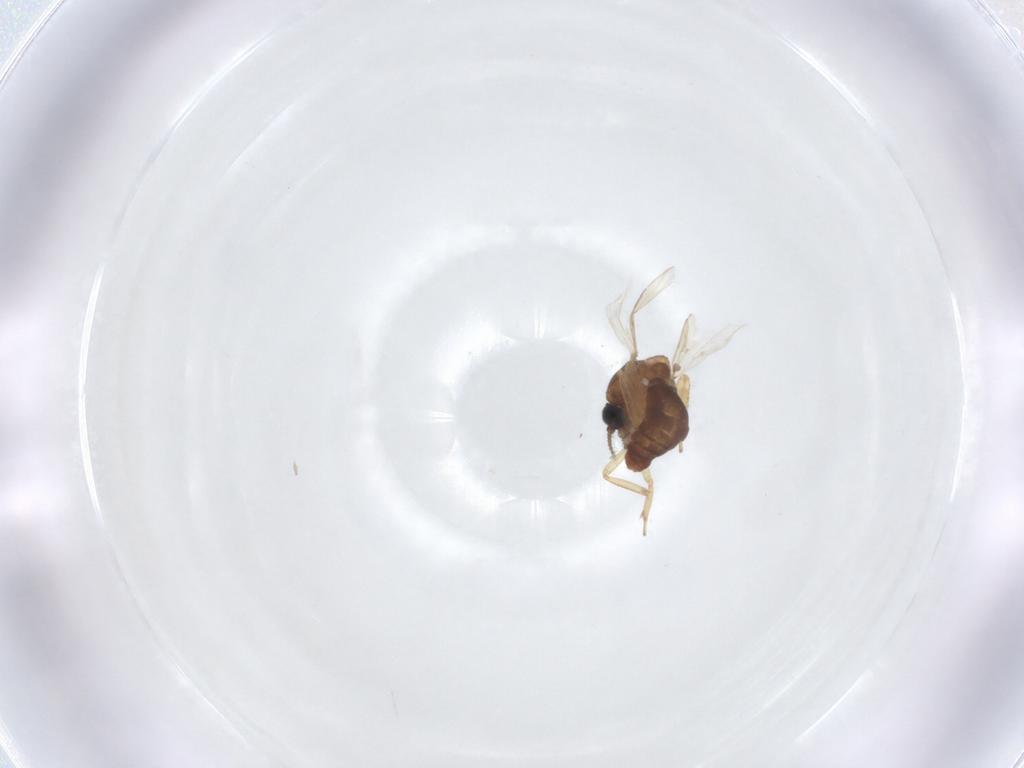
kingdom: Animalia
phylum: Arthropoda
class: Insecta
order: Diptera
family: Ceratopogonidae
